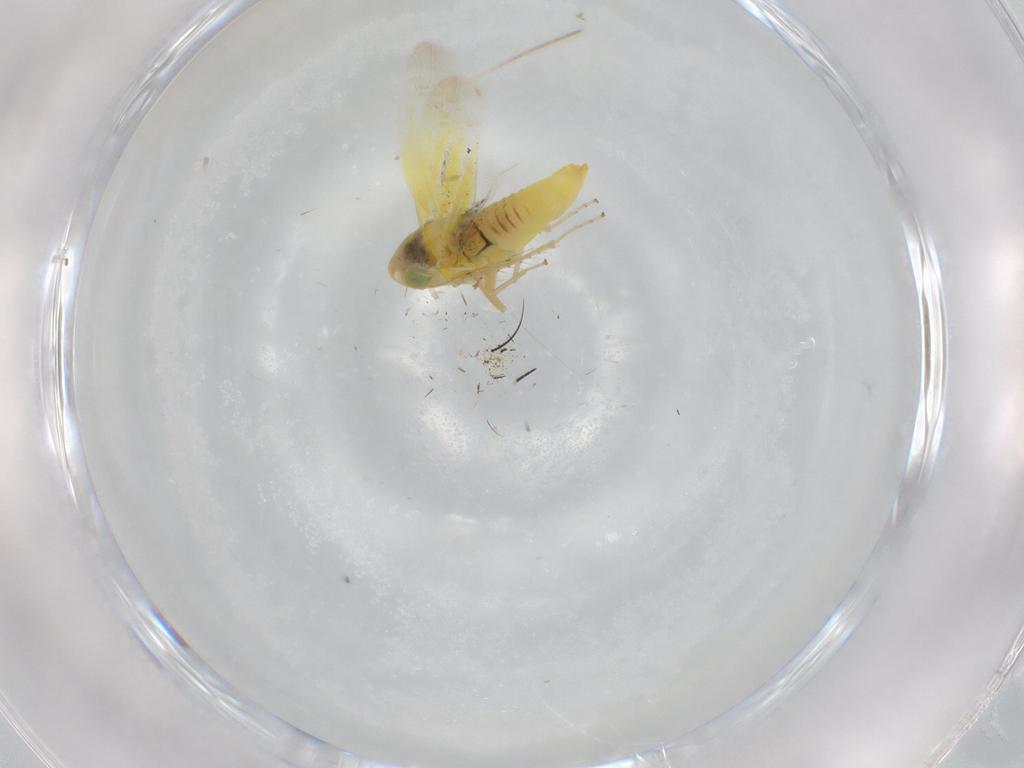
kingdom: Animalia
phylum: Arthropoda
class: Insecta
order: Hemiptera
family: Cicadellidae
